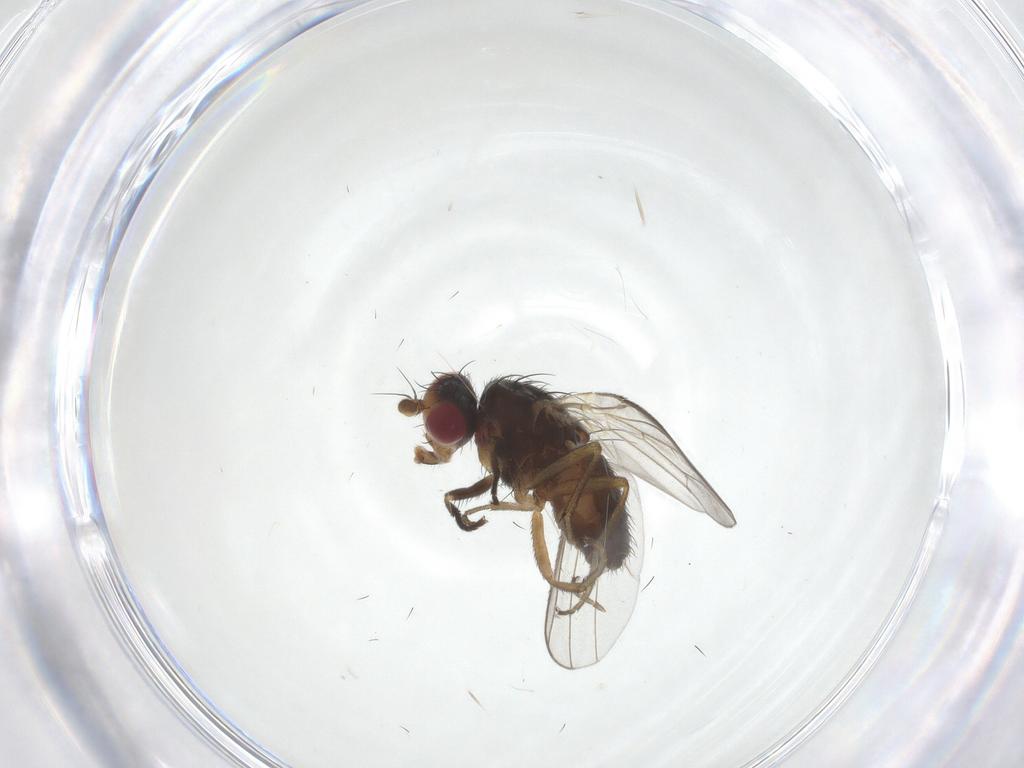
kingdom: Animalia
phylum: Arthropoda
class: Insecta
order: Diptera
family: Heleomyzidae
